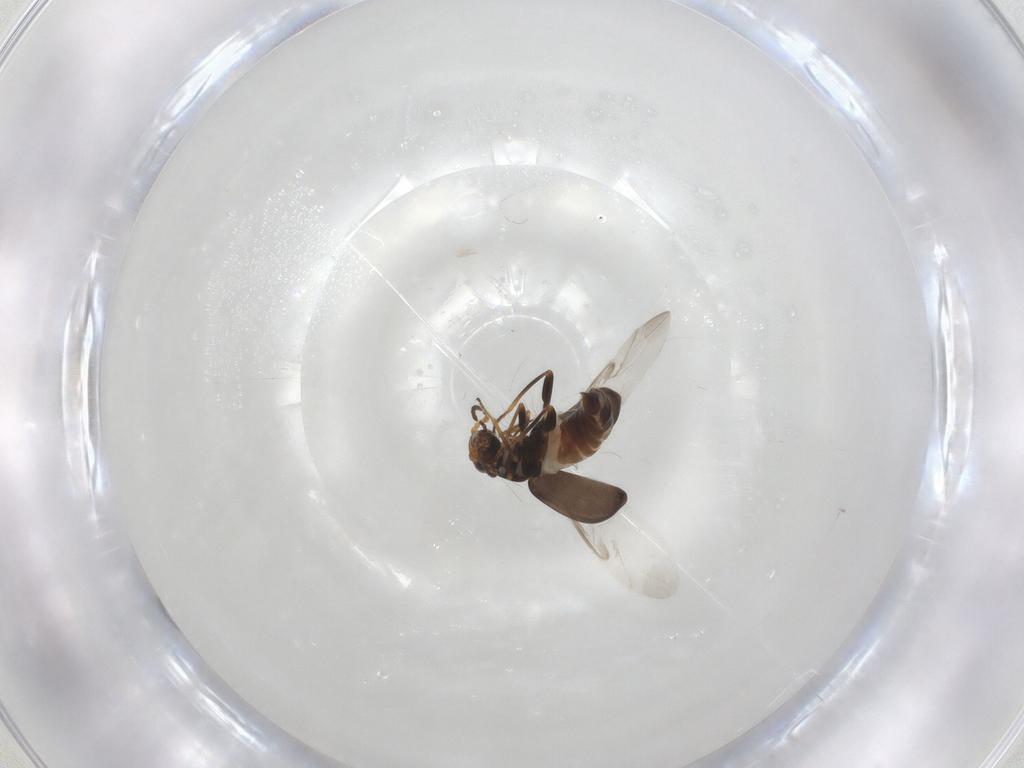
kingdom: Animalia
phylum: Arthropoda
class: Insecta
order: Coleoptera
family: Melyridae
